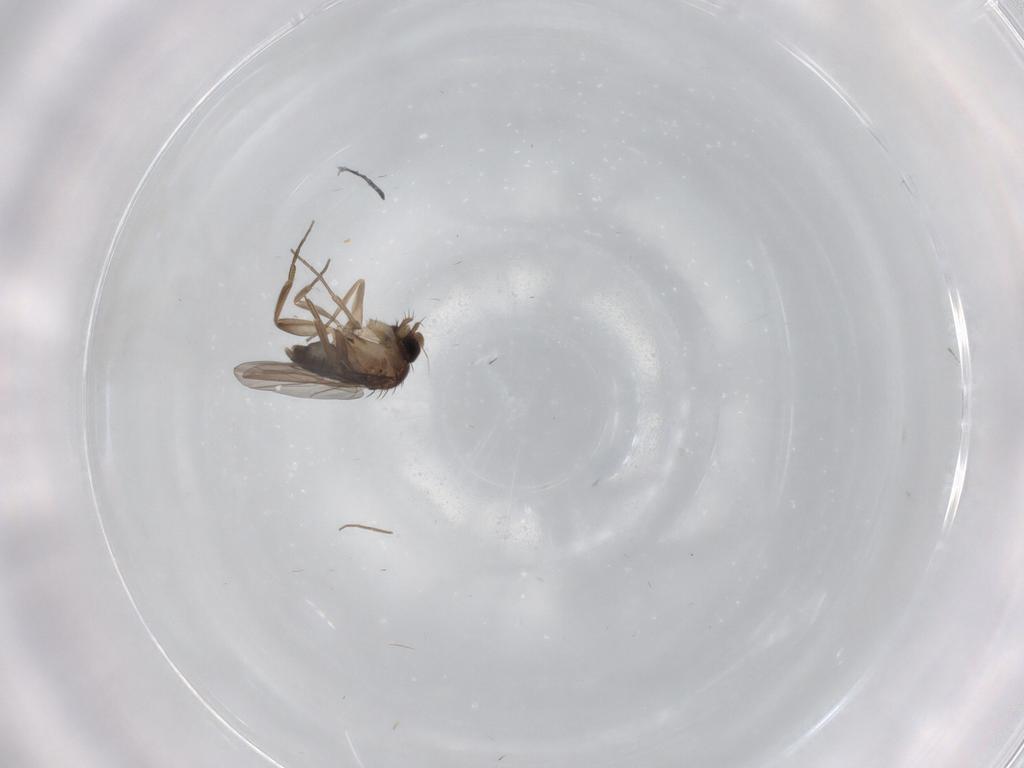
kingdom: Animalia
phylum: Arthropoda
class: Insecta
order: Diptera
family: Phoridae
